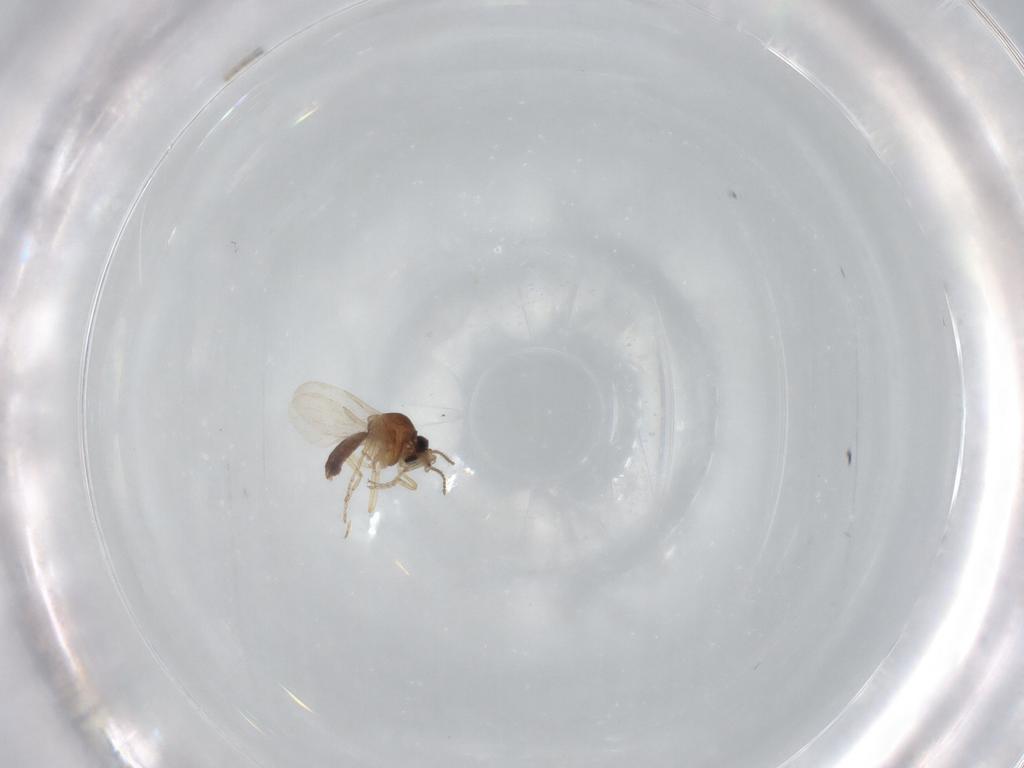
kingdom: Animalia
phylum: Arthropoda
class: Insecta
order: Diptera
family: Ceratopogonidae
